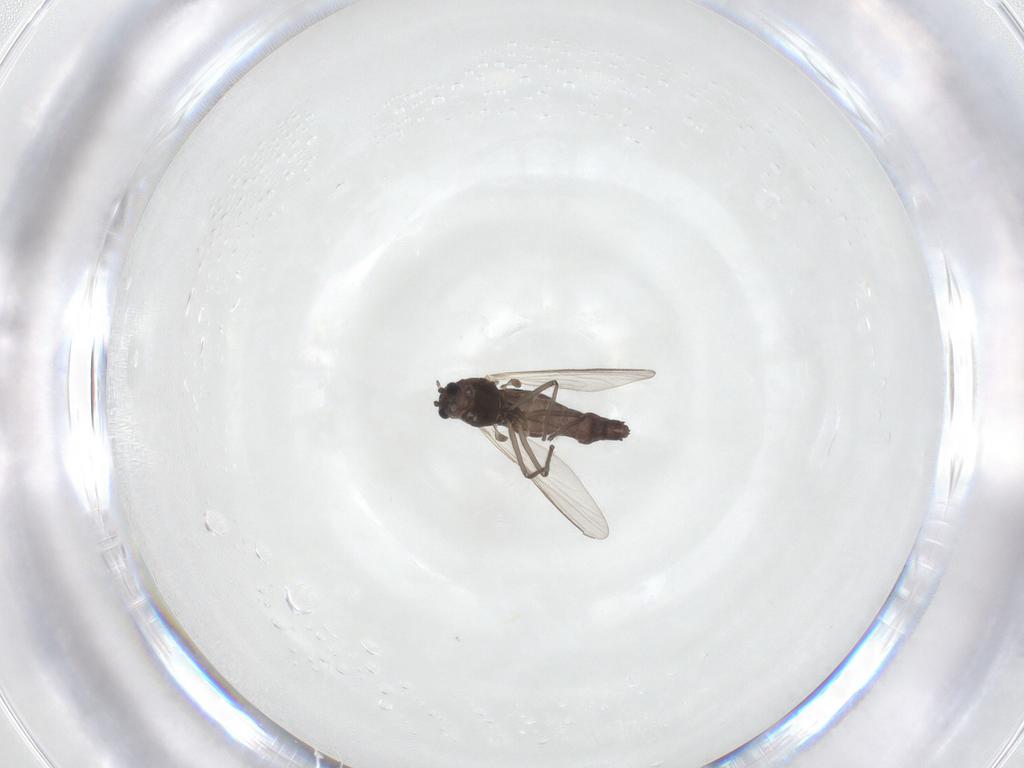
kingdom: Animalia
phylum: Arthropoda
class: Insecta
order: Diptera
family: Chironomidae
